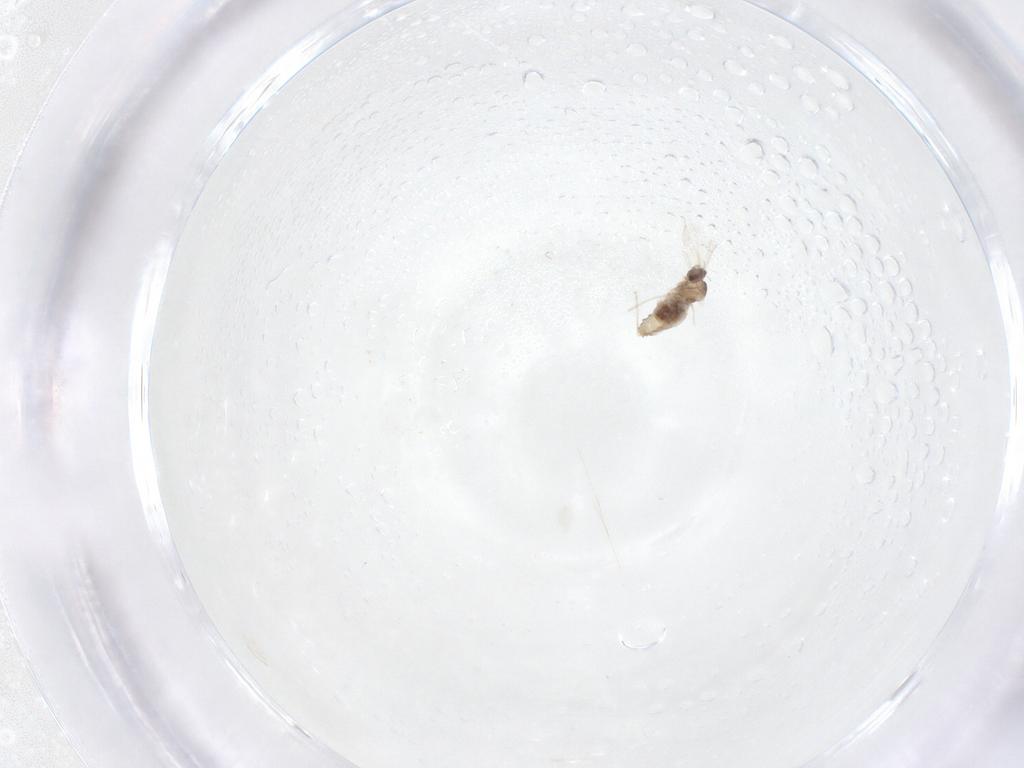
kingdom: Animalia
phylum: Arthropoda
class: Insecta
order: Diptera
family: Cecidomyiidae
